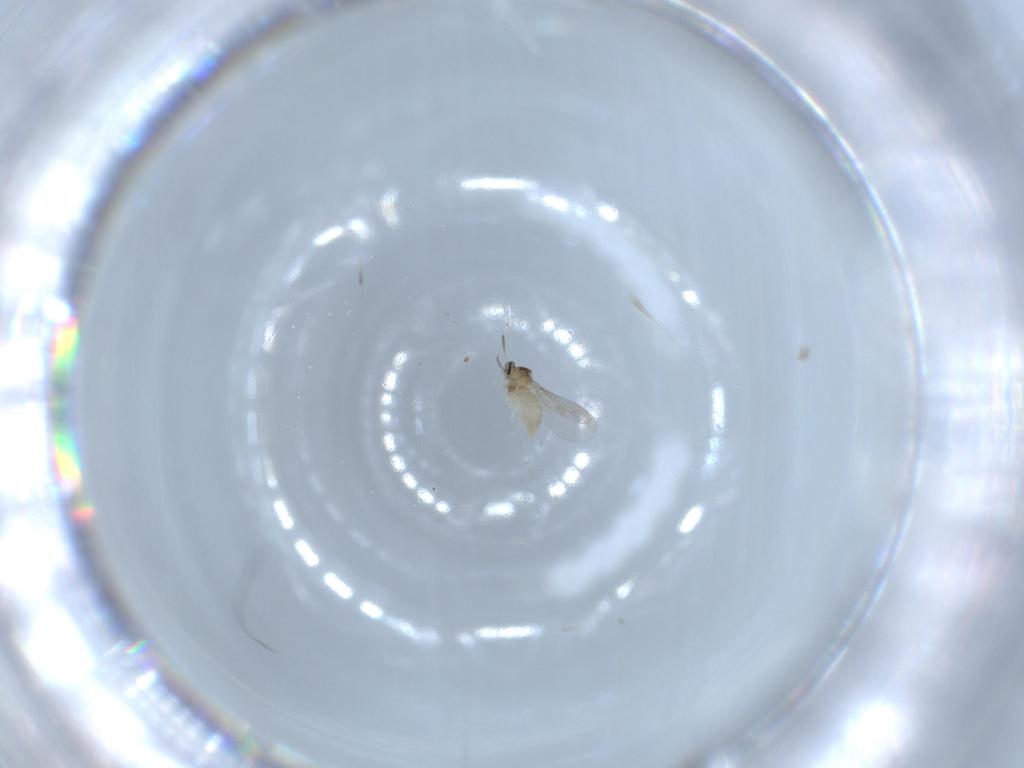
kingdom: Animalia
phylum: Arthropoda
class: Insecta
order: Diptera
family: Cecidomyiidae
